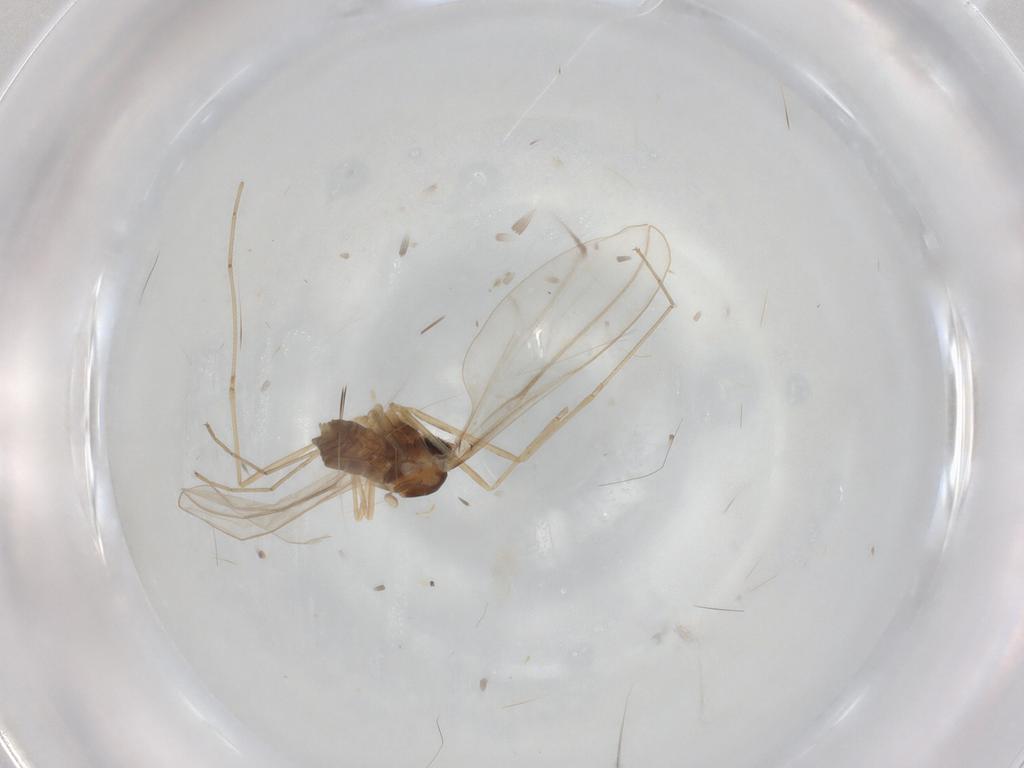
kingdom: Animalia
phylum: Arthropoda
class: Insecta
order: Diptera
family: Cecidomyiidae
